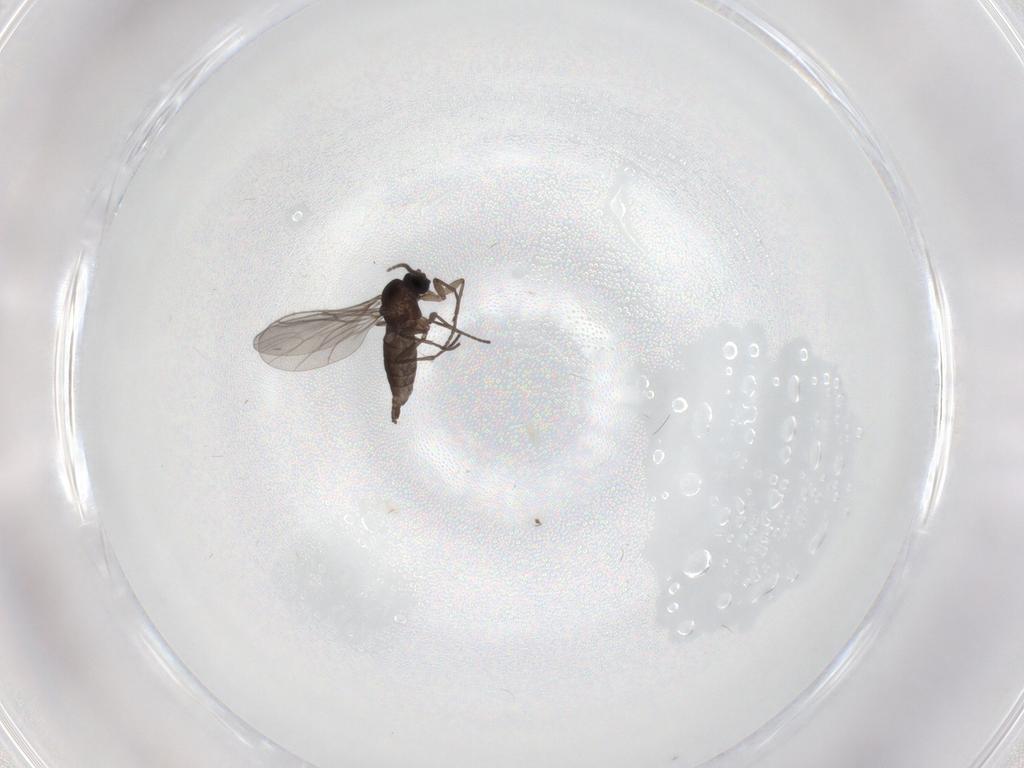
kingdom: Animalia
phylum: Arthropoda
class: Insecta
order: Diptera
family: Sciaridae
